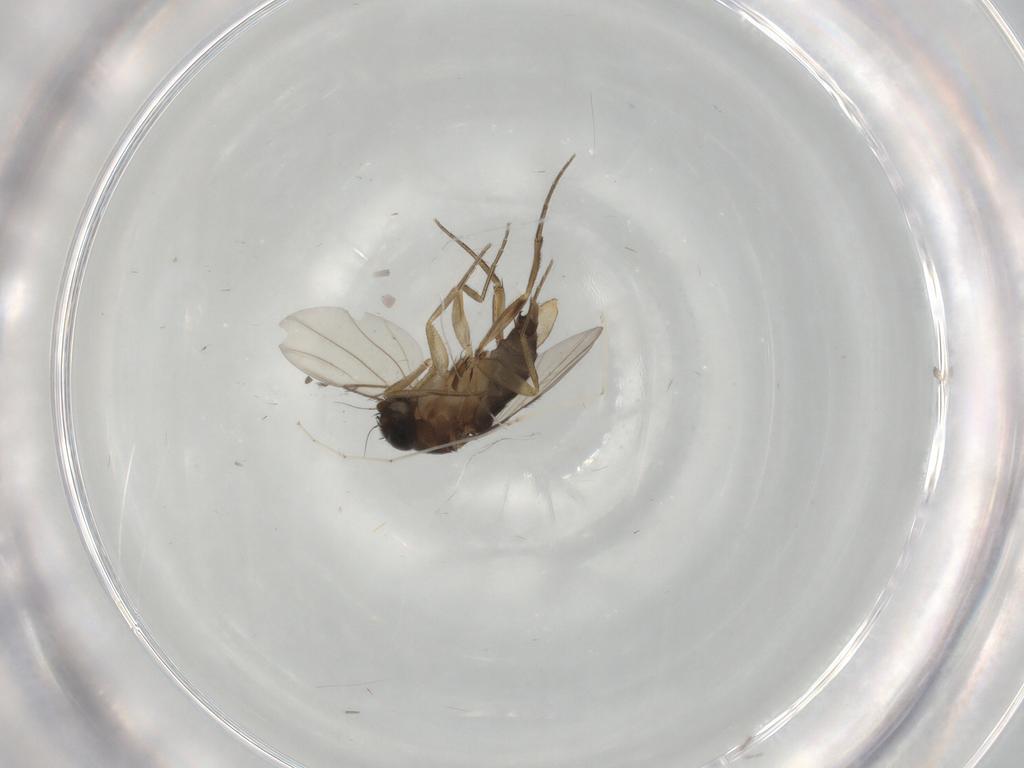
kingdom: Animalia
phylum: Arthropoda
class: Insecta
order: Diptera
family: Cecidomyiidae
